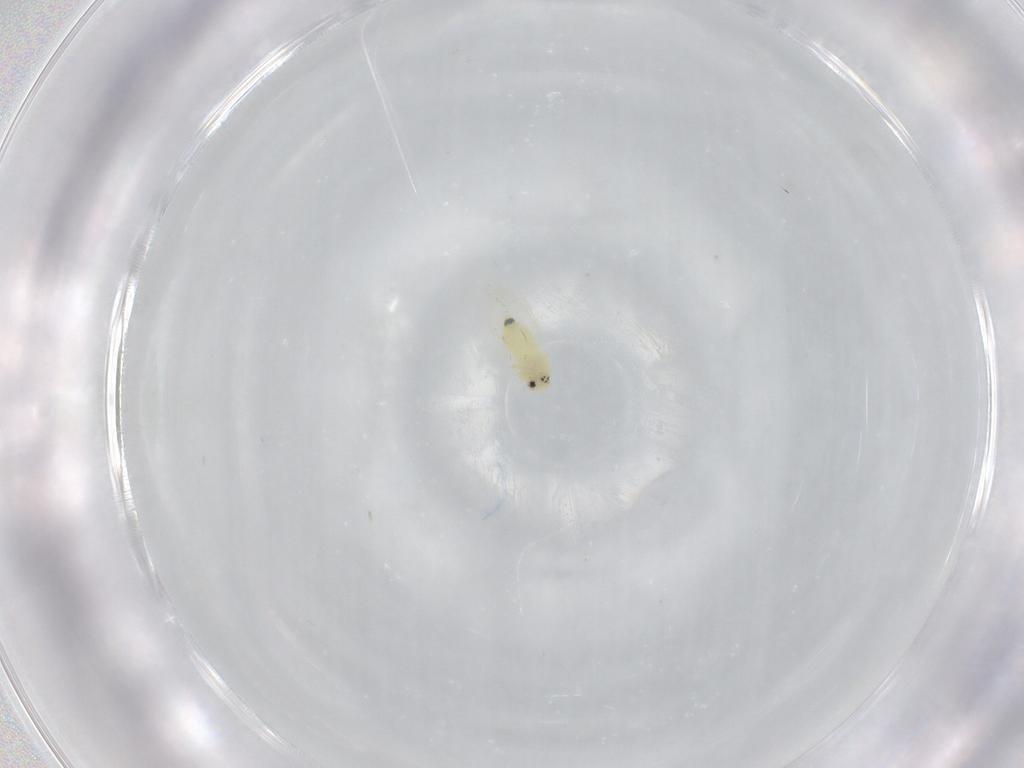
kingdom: Animalia
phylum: Arthropoda
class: Insecta
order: Hemiptera
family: Aleyrodidae
